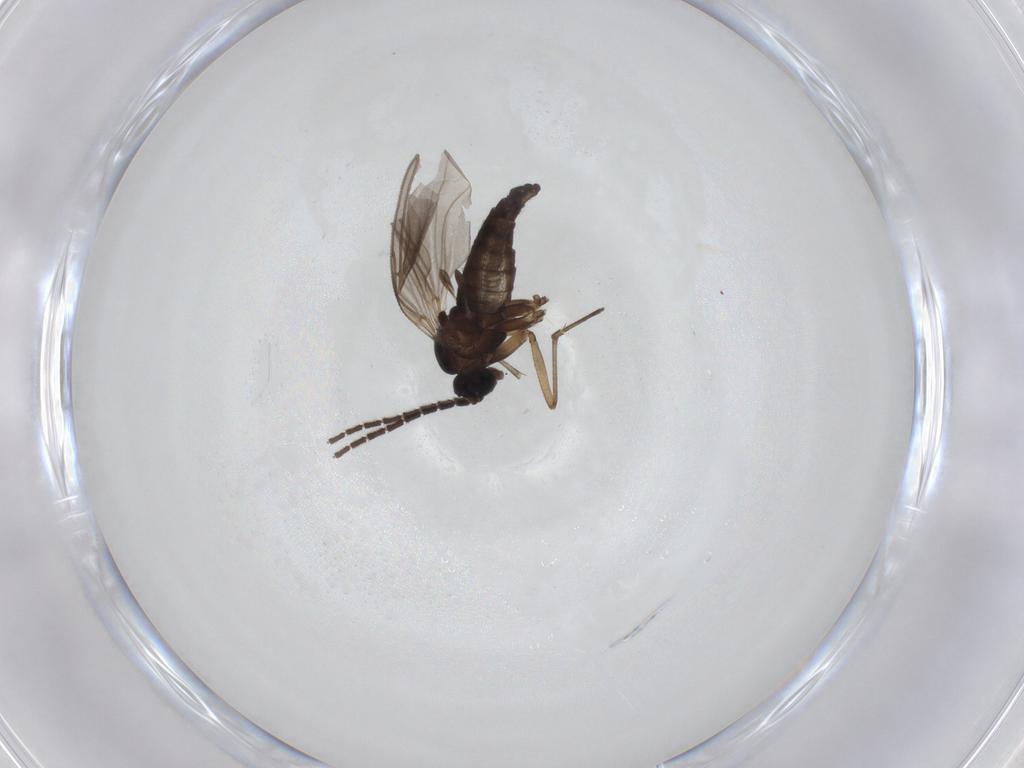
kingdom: Animalia
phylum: Arthropoda
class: Insecta
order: Diptera
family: Sciaridae
